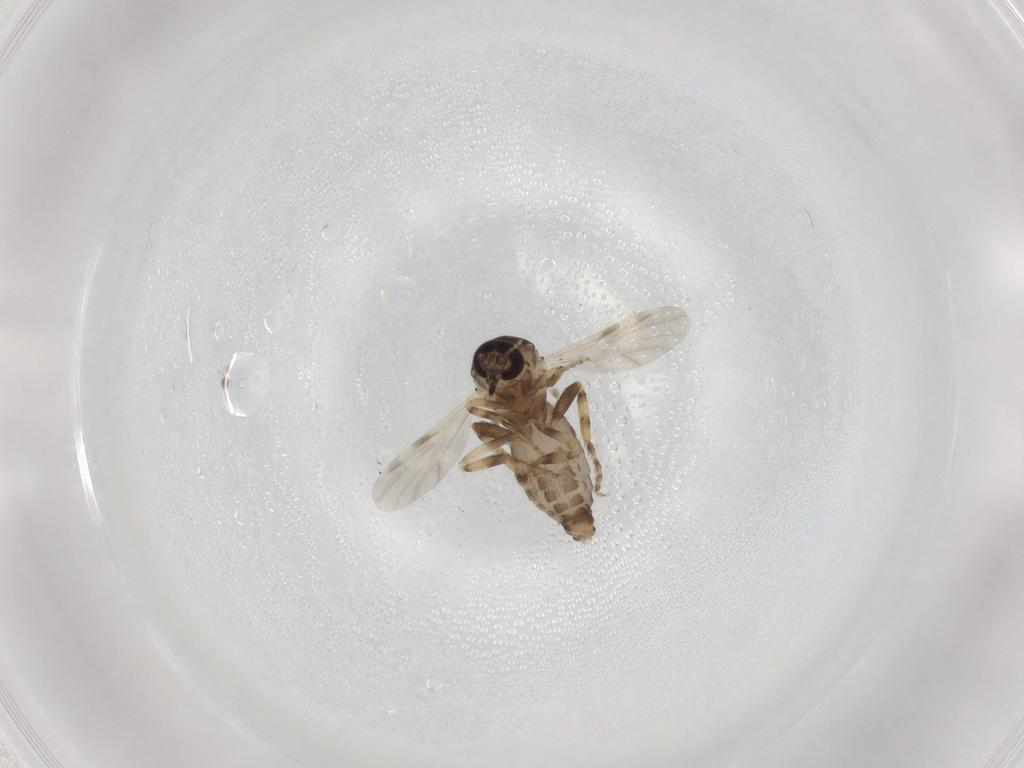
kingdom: Animalia
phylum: Arthropoda
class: Insecta
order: Diptera
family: Ceratopogonidae
